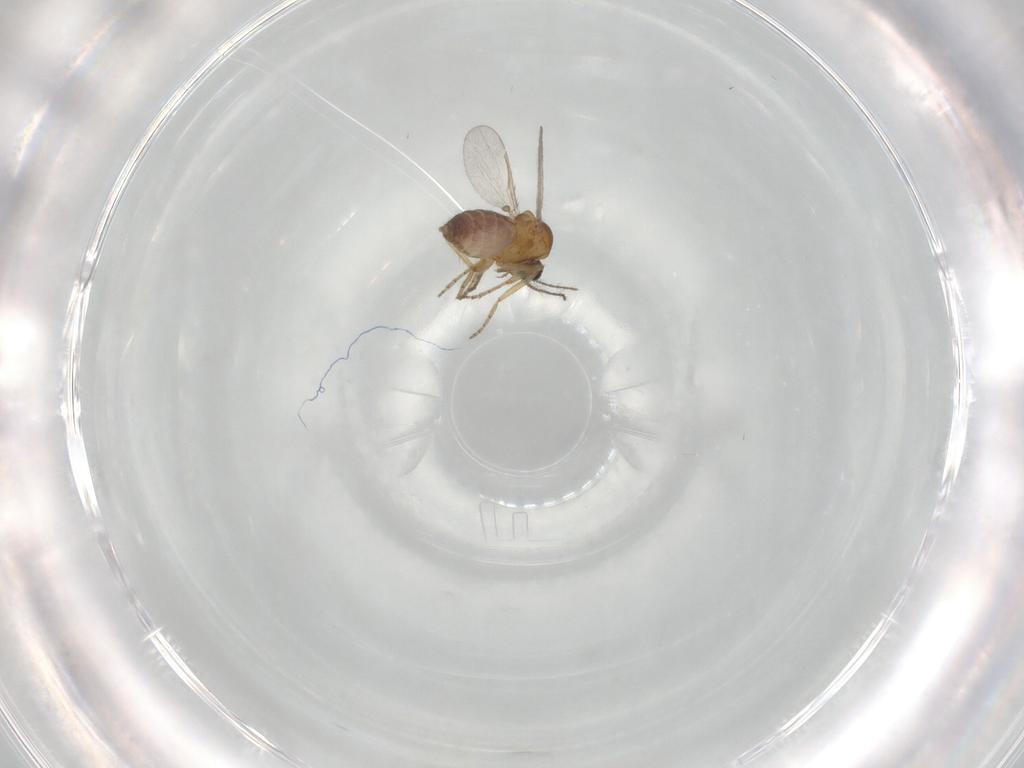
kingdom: Animalia
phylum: Arthropoda
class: Insecta
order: Diptera
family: Ceratopogonidae
